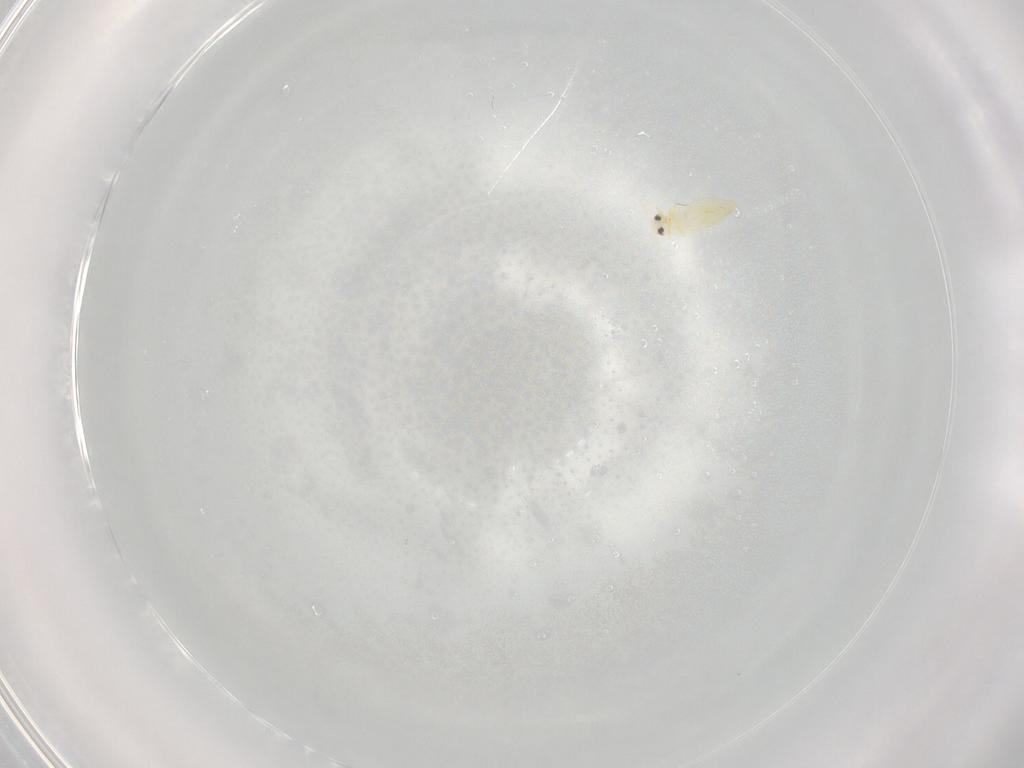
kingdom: Animalia
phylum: Arthropoda
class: Insecta
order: Hemiptera
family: Aleyrodidae
